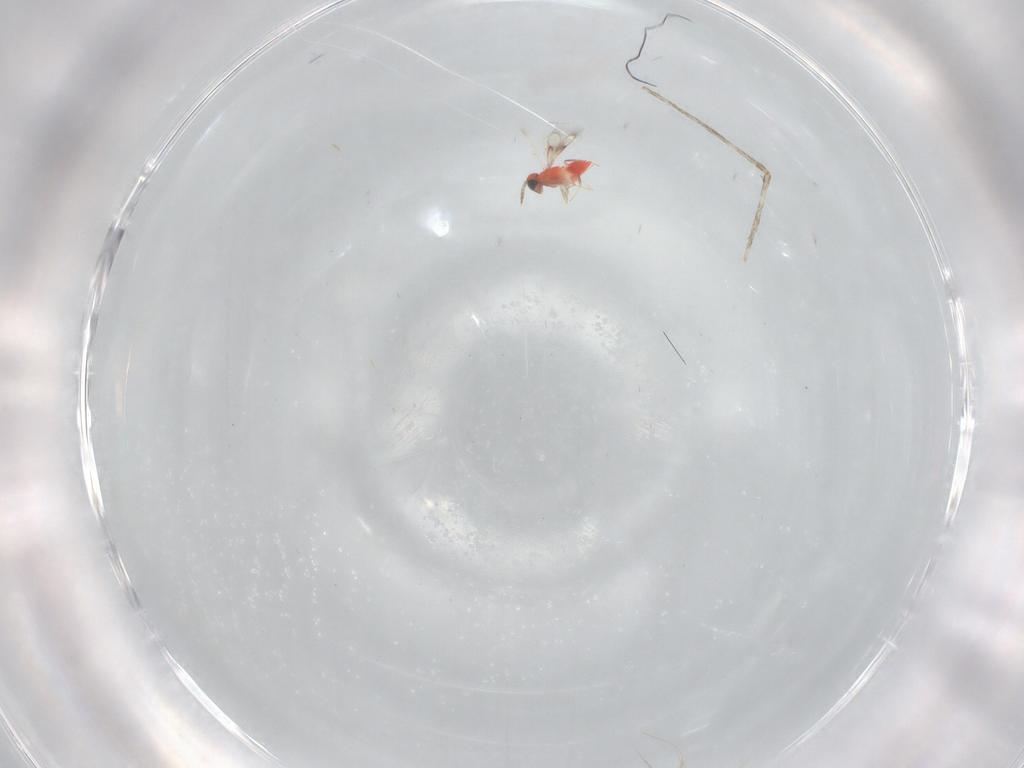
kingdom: Animalia
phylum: Arthropoda
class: Insecta
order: Hymenoptera
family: Trichogrammatidae
